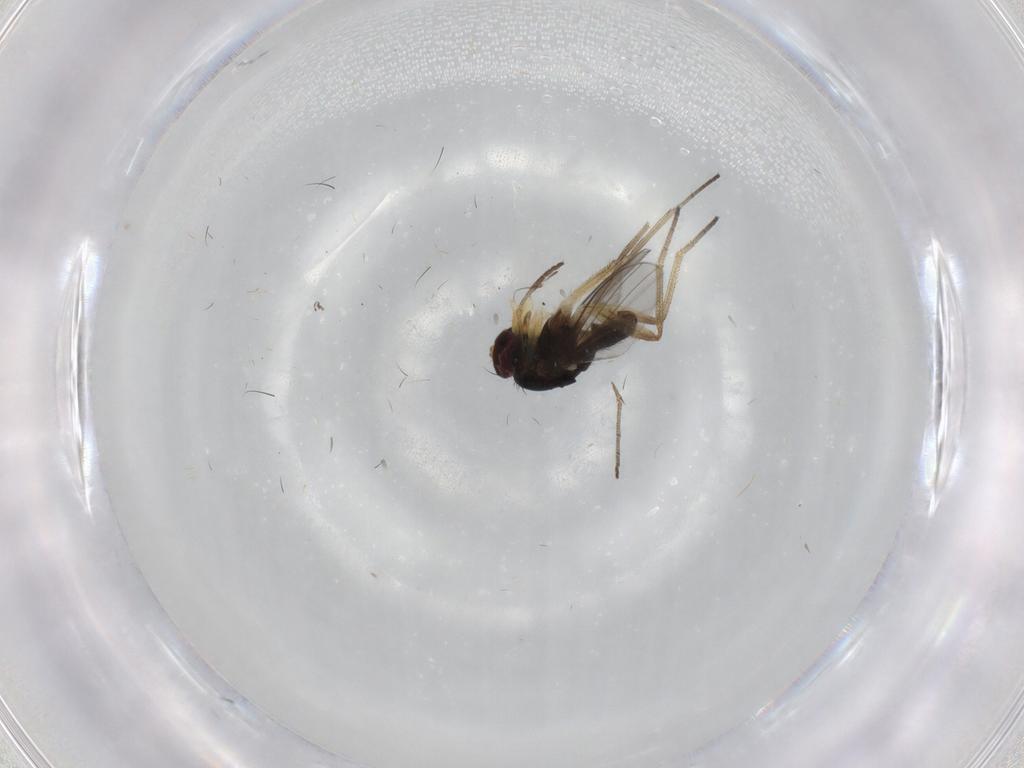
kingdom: Animalia
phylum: Arthropoda
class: Insecta
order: Diptera
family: Dolichopodidae
